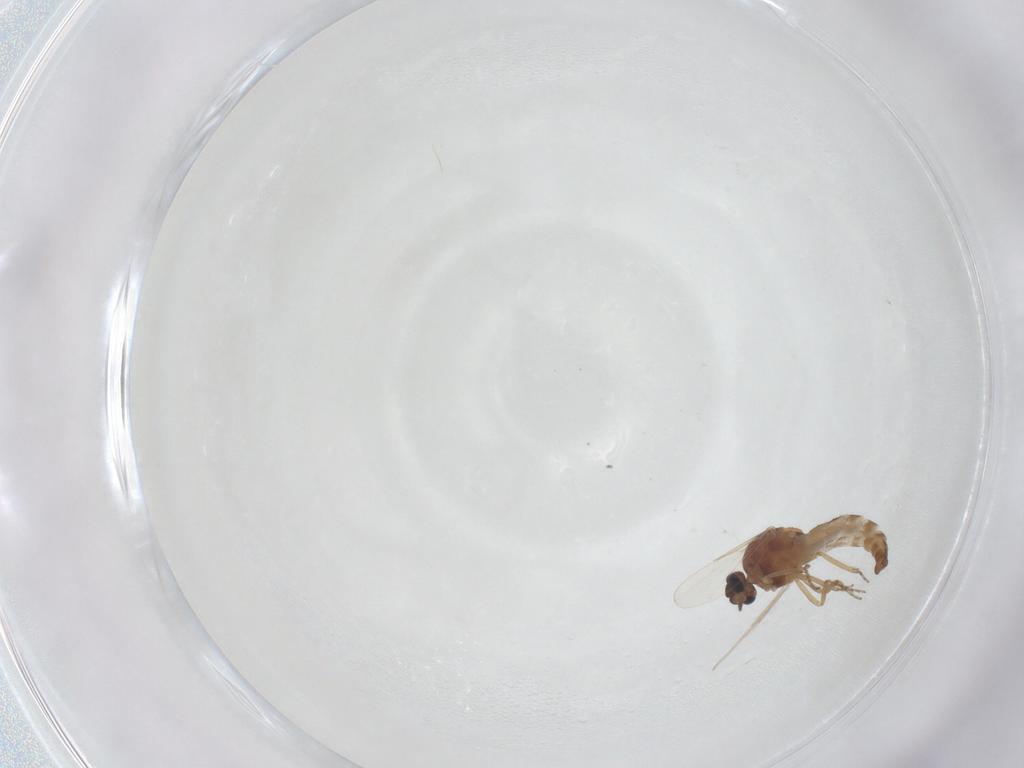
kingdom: Animalia
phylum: Arthropoda
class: Insecta
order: Diptera
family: Ceratopogonidae
